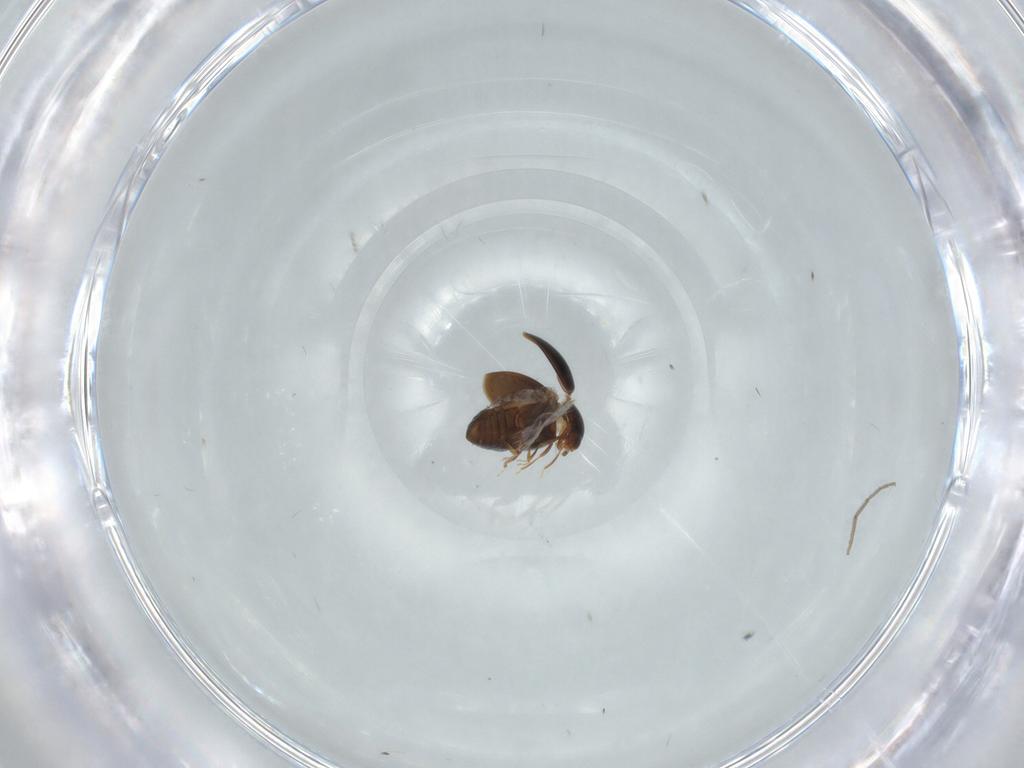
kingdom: Animalia
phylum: Arthropoda
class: Insecta
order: Coleoptera
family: Corylophidae
